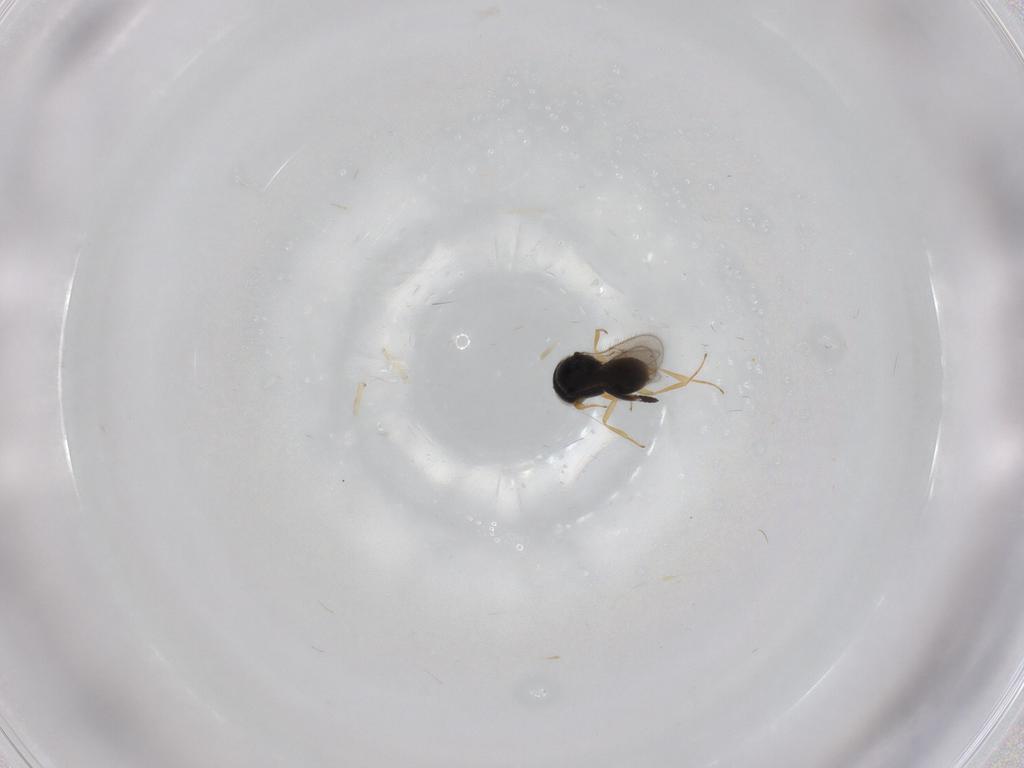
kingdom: Animalia
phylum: Arthropoda
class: Insecta
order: Hymenoptera
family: Scelionidae
